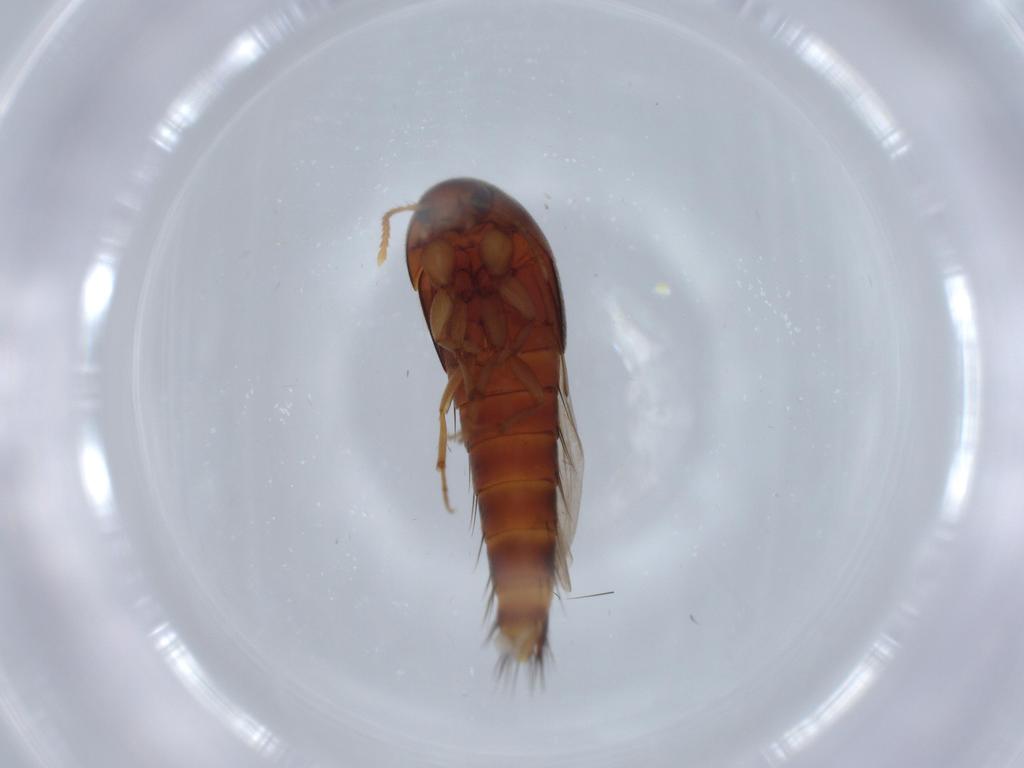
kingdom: Animalia
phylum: Arthropoda
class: Insecta
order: Coleoptera
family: Staphylinidae
